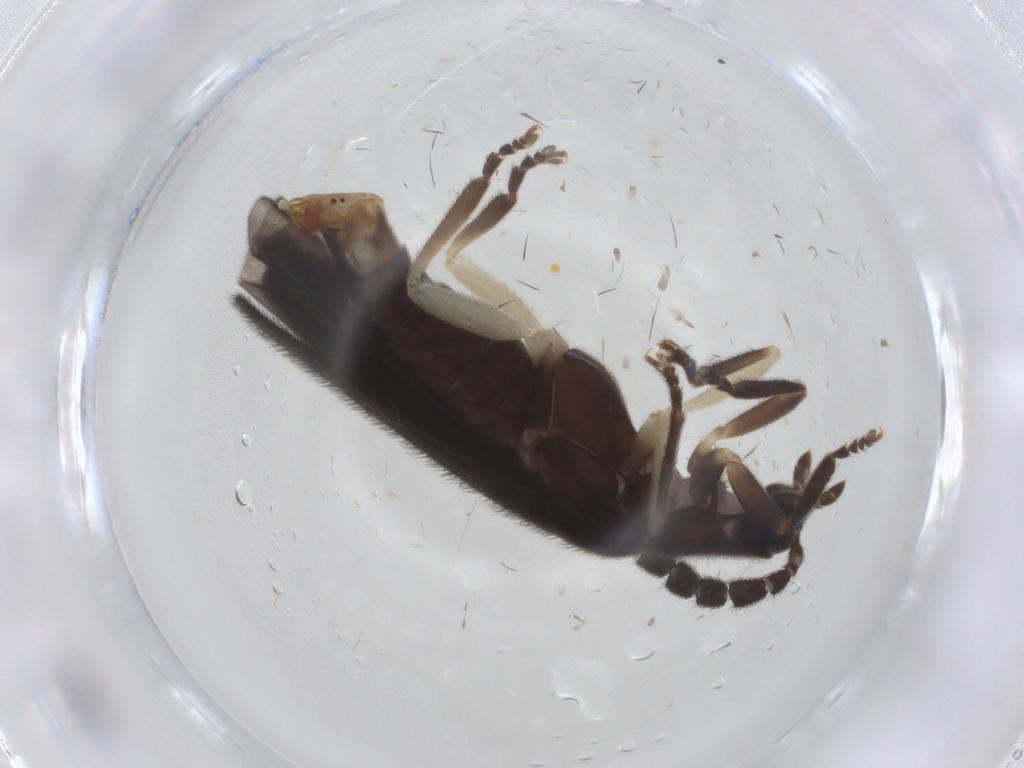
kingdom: Animalia
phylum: Arthropoda
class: Insecta
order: Coleoptera
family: Lampyridae
